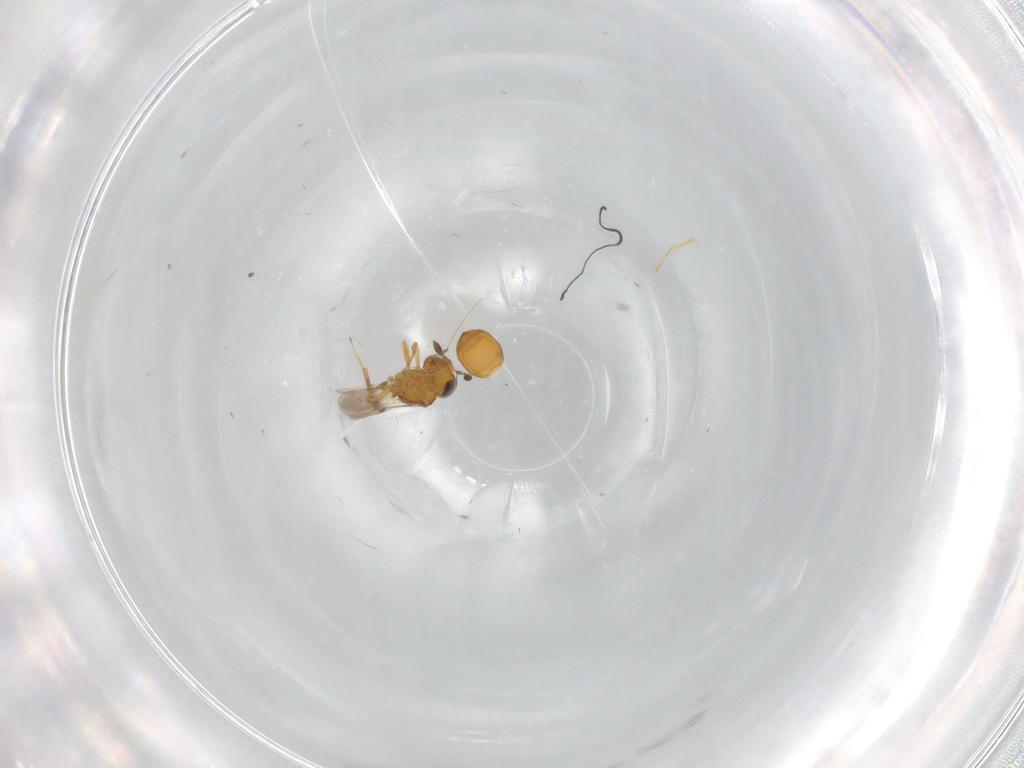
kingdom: Animalia
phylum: Arthropoda
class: Insecta
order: Hymenoptera
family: Scelionidae
